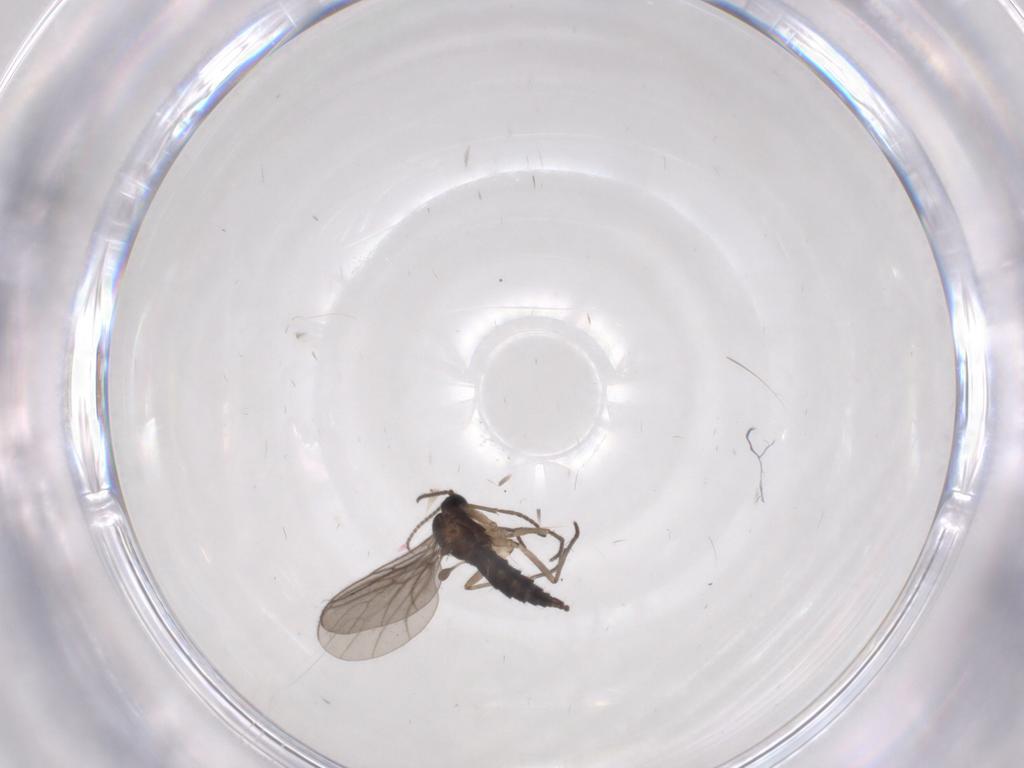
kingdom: Animalia
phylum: Arthropoda
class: Insecta
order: Diptera
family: Sciaridae
